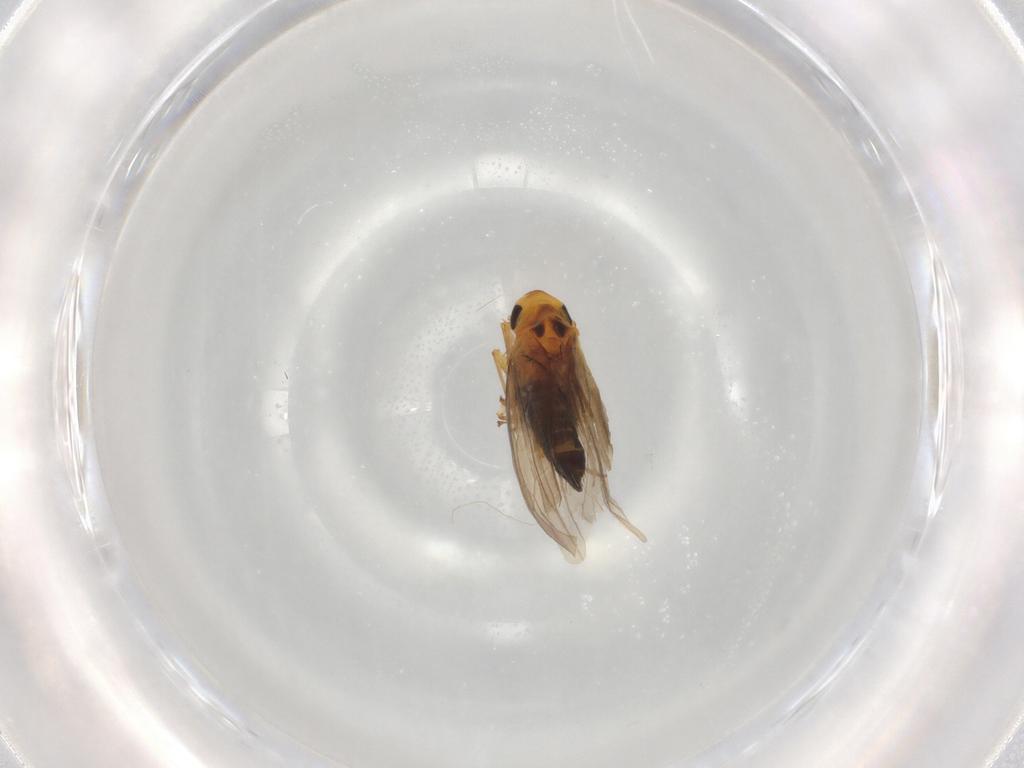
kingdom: Animalia
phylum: Arthropoda
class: Insecta
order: Hemiptera
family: Cicadellidae
